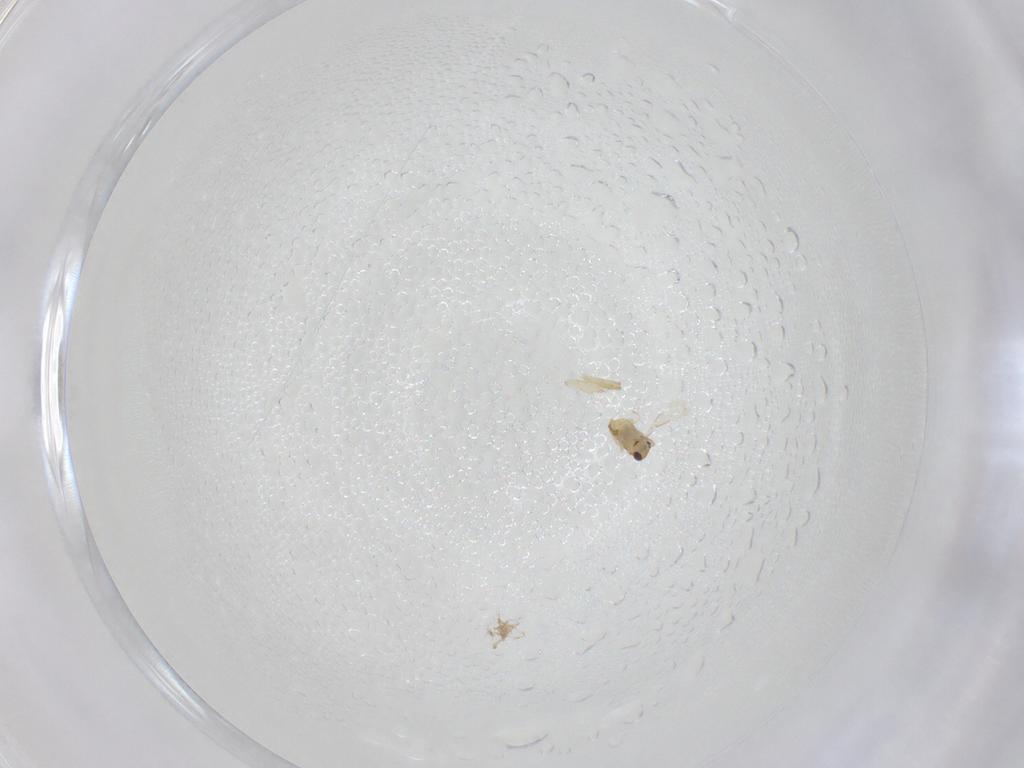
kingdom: Animalia
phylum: Arthropoda
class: Insecta
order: Hymenoptera
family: Aphelinidae
